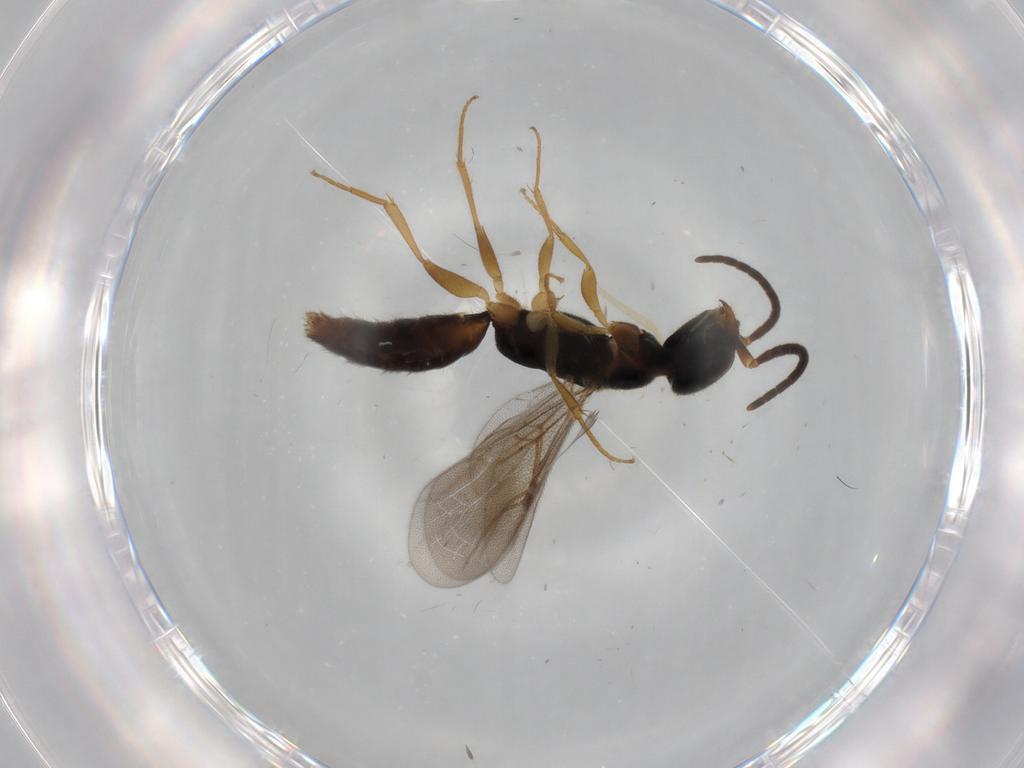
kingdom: Animalia
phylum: Arthropoda
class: Insecta
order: Hymenoptera
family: Bethylidae
